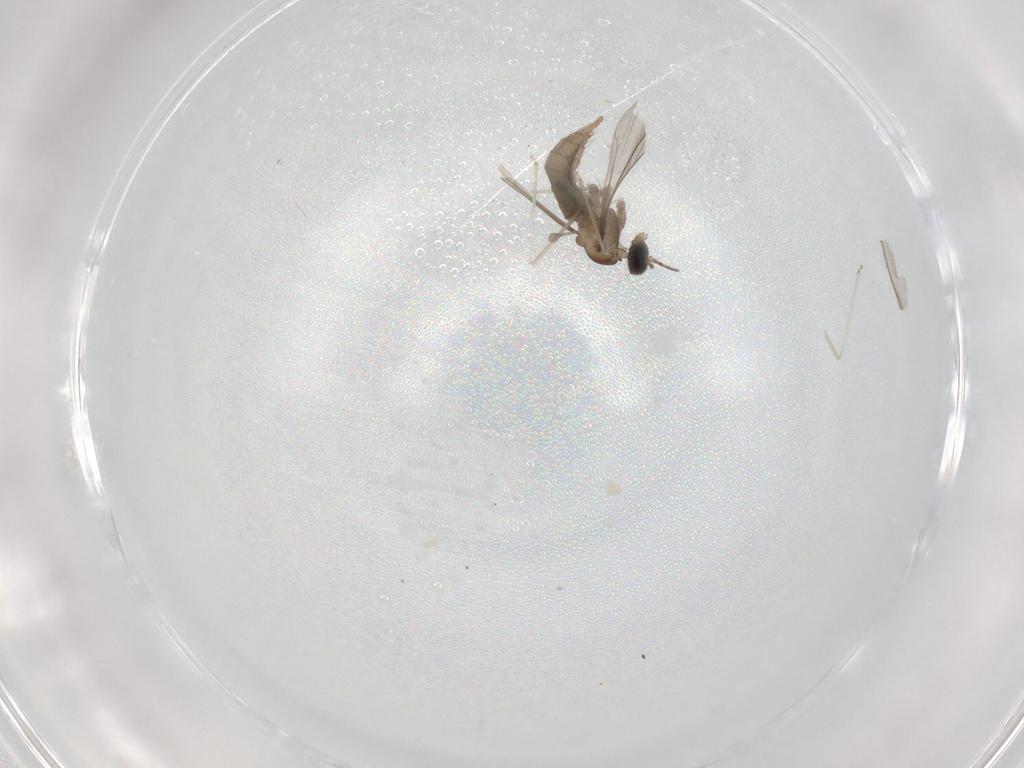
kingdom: Animalia
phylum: Arthropoda
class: Insecta
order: Diptera
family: Cecidomyiidae
